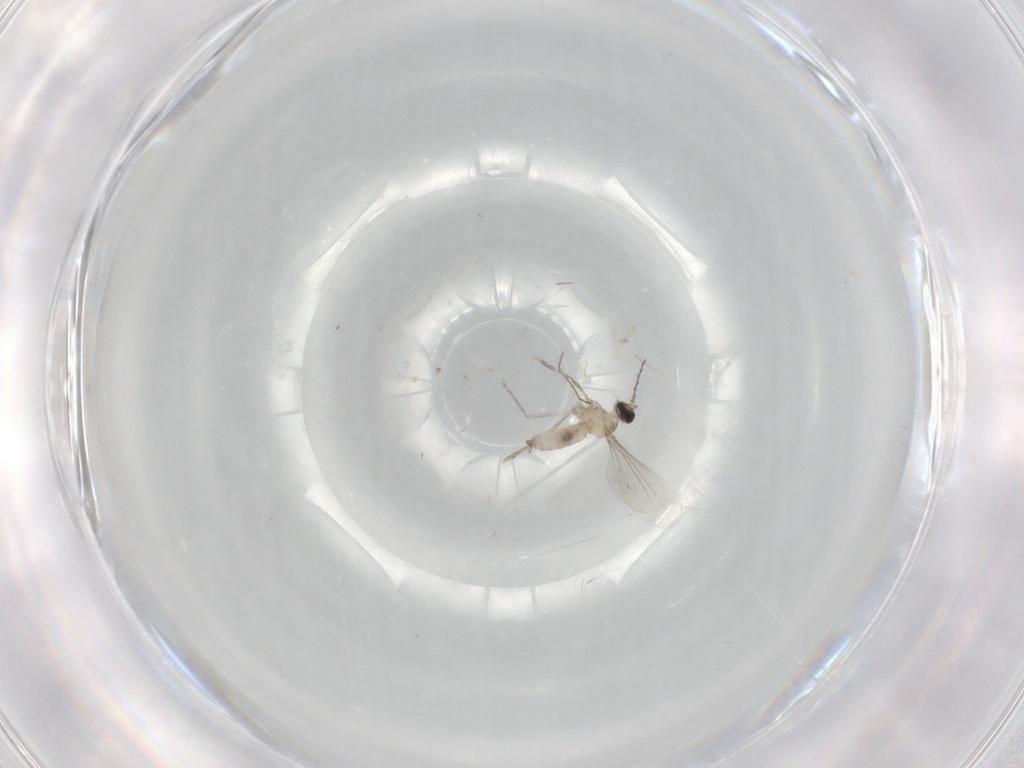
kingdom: Animalia
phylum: Arthropoda
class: Insecta
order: Diptera
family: Cecidomyiidae
